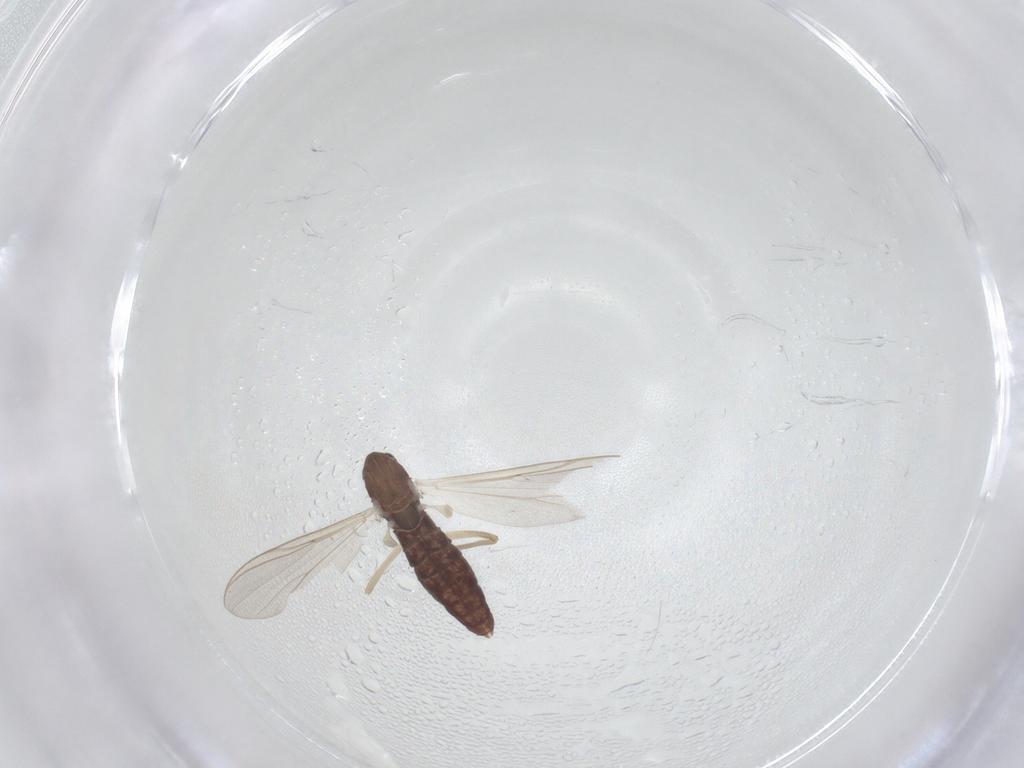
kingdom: Animalia
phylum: Arthropoda
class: Insecta
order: Diptera
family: Chironomidae
